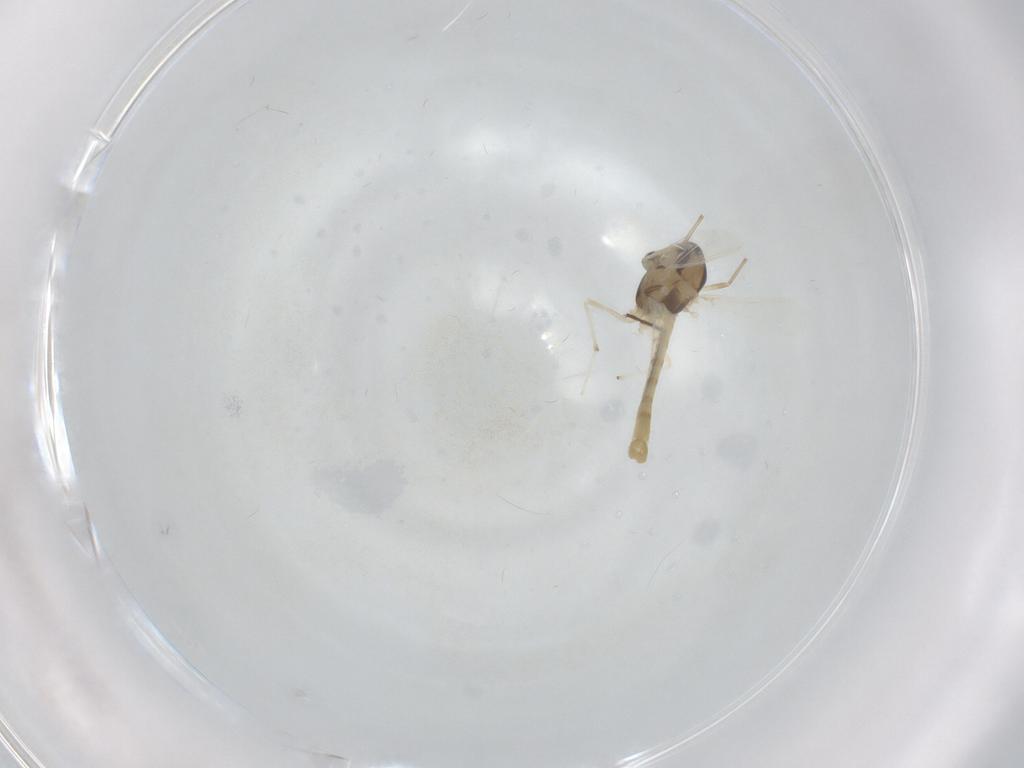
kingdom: Animalia
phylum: Arthropoda
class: Insecta
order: Diptera
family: Chironomidae
